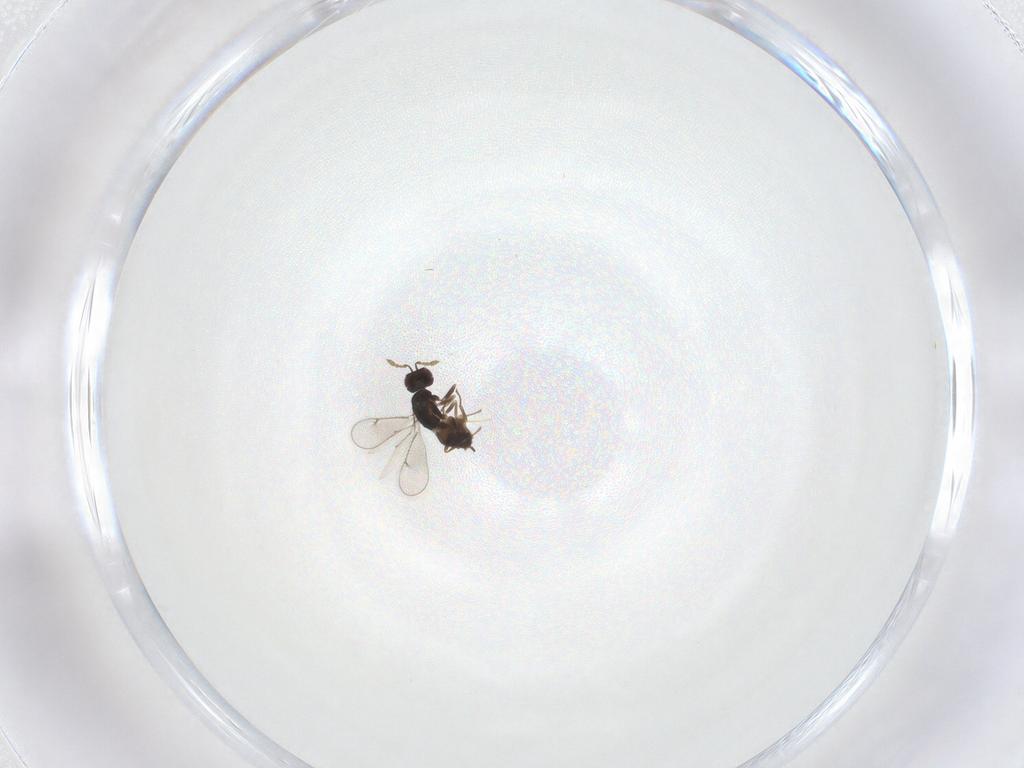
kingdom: Animalia
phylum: Arthropoda
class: Insecta
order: Hymenoptera
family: Eulophidae
